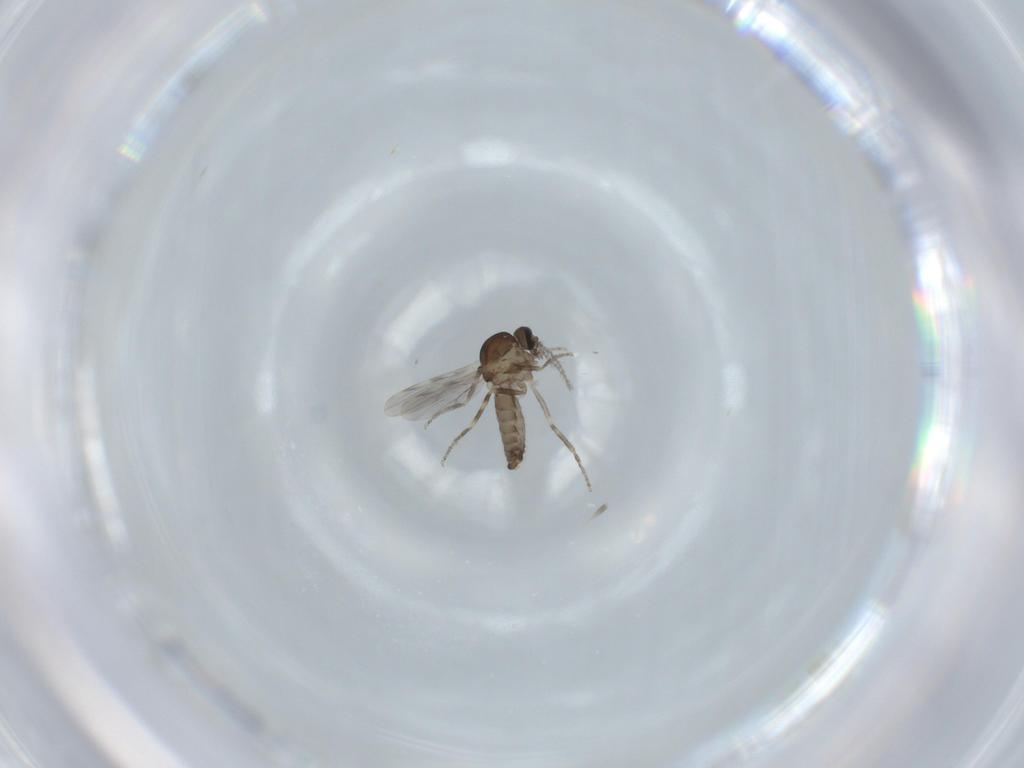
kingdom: Animalia
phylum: Arthropoda
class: Insecta
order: Diptera
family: Ceratopogonidae
